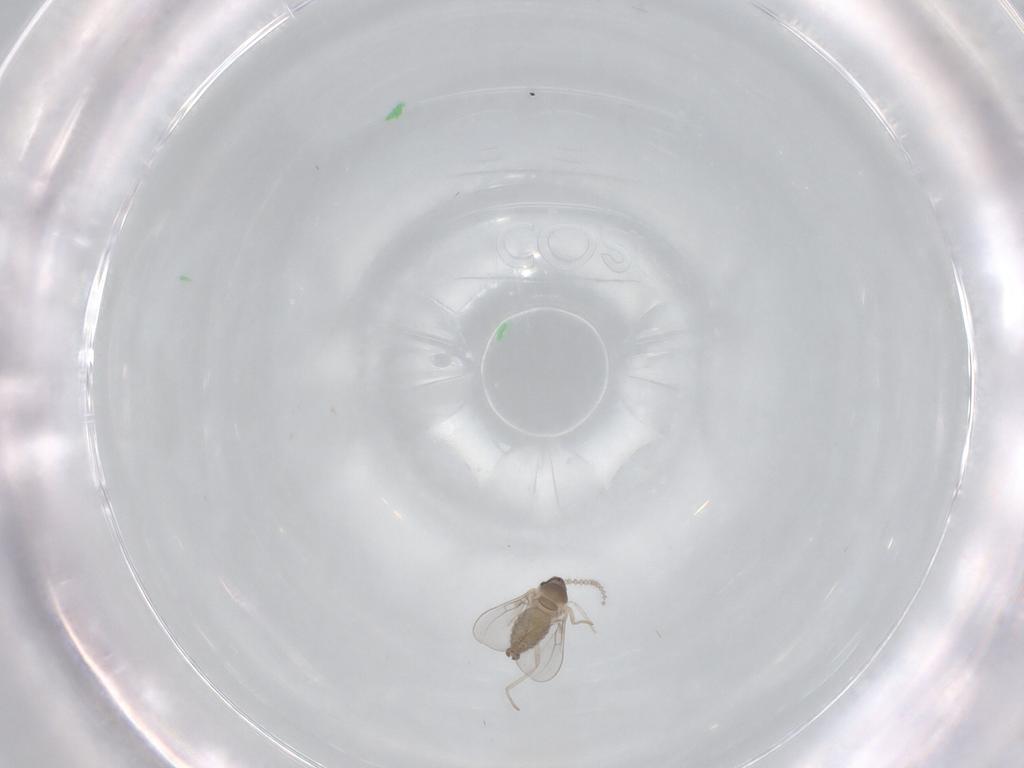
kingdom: Animalia
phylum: Arthropoda
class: Insecta
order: Diptera
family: Cecidomyiidae
